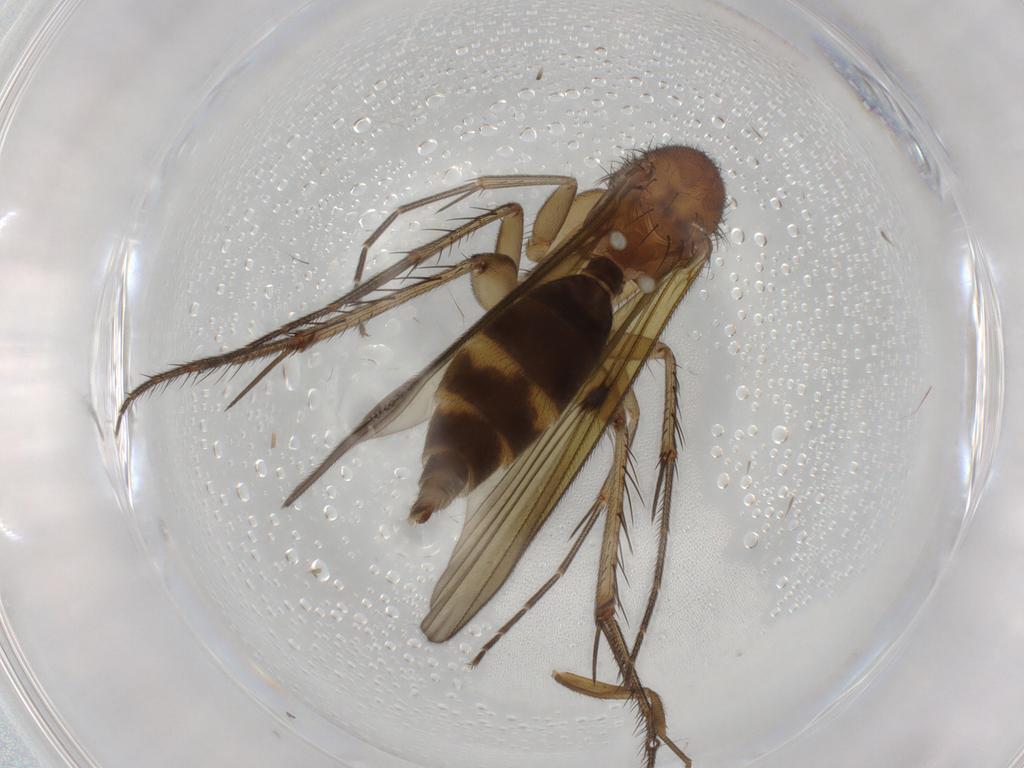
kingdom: Animalia
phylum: Arthropoda
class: Insecta
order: Diptera
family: Mycetophilidae
